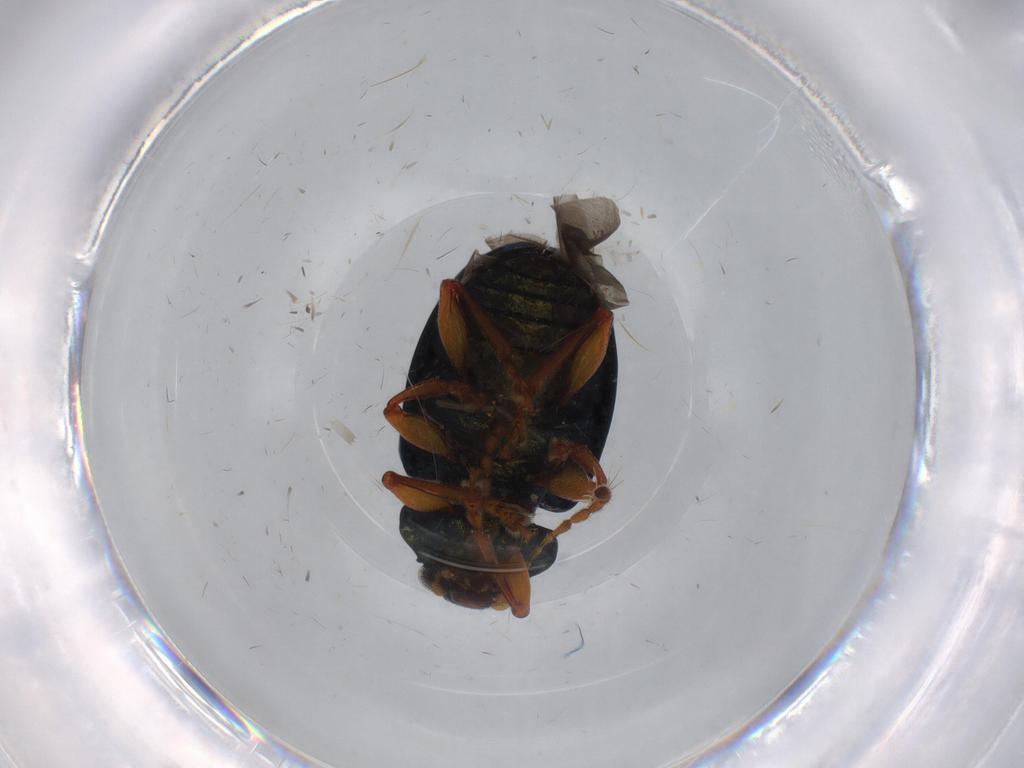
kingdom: Animalia
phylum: Arthropoda
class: Insecta
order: Coleoptera
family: Chrysomelidae
